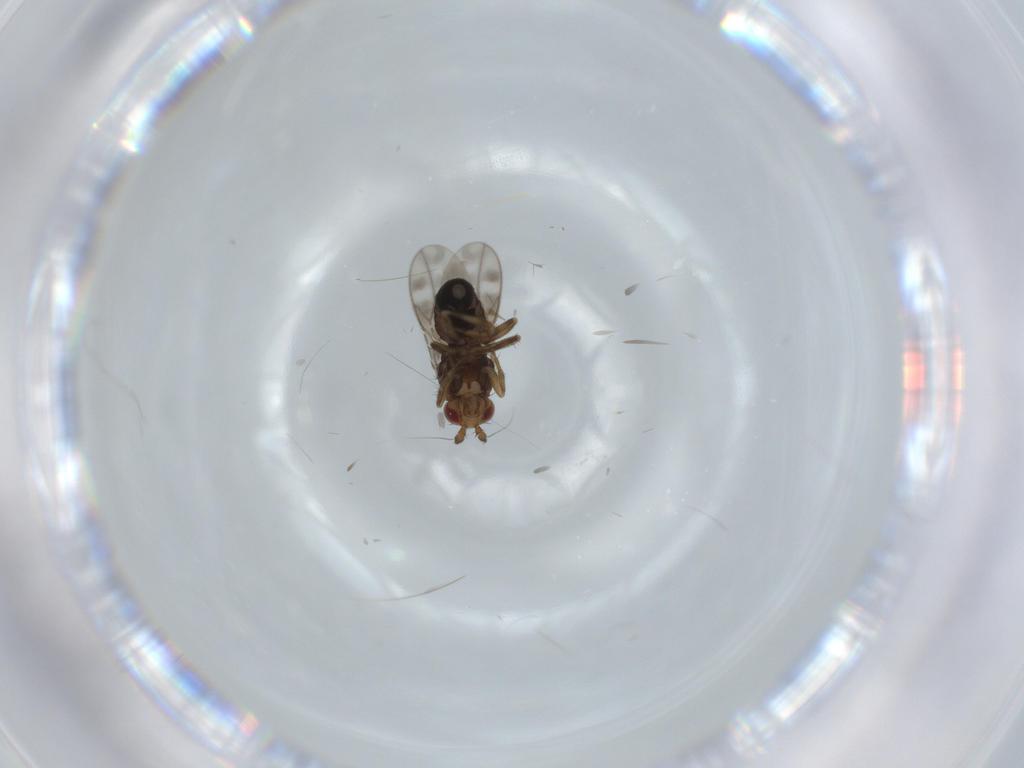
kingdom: Animalia
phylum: Arthropoda
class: Insecta
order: Diptera
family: Sphaeroceridae
